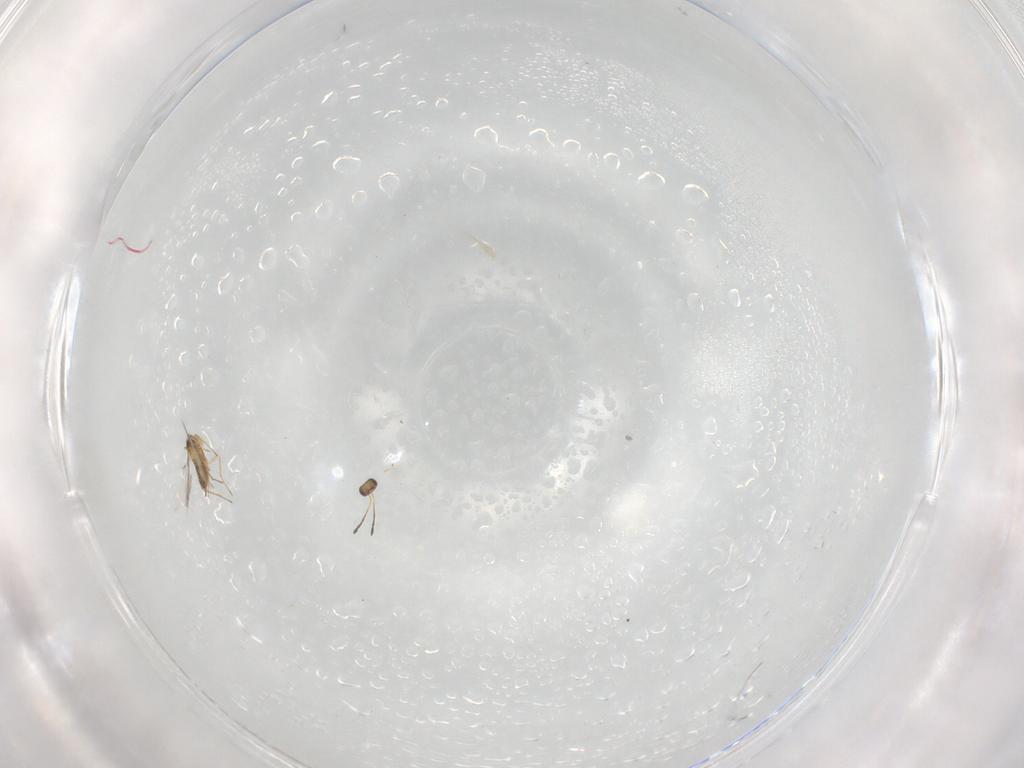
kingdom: Animalia
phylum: Arthropoda
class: Insecta
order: Hymenoptera
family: Mymaridae
